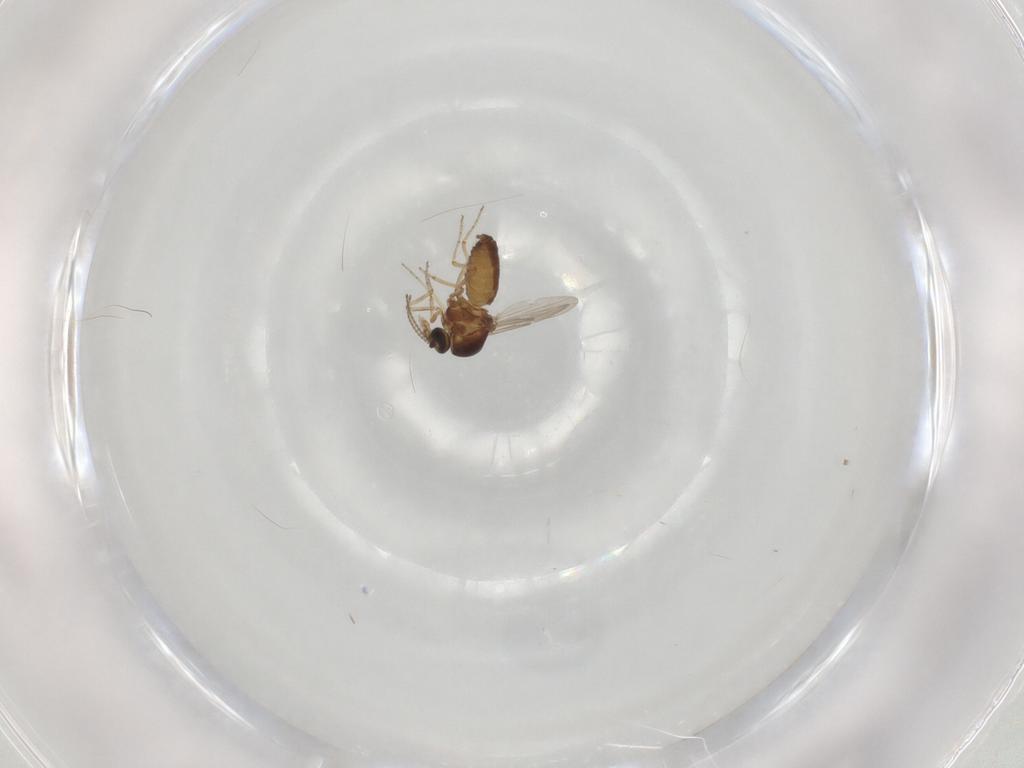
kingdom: Animalia
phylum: Arthropoda
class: Insecta
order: Diptera
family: Ceratopogonidae
